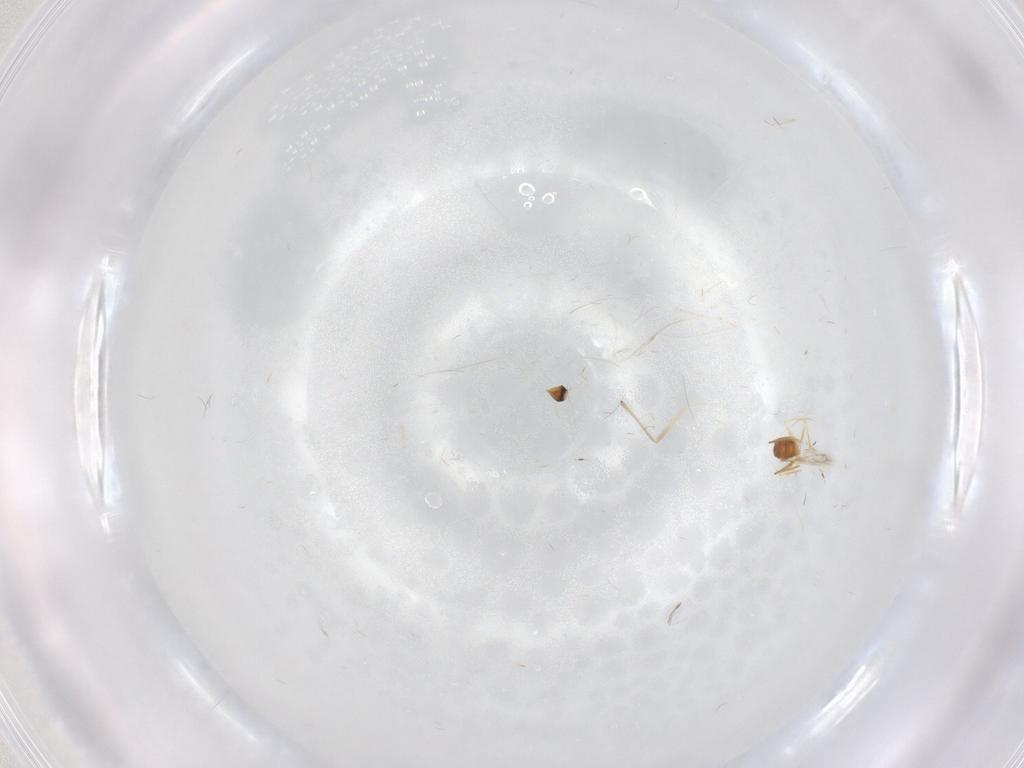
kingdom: Animalia
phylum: Arthropoda
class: Insecta
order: Hymenoptera
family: Mymaridae
